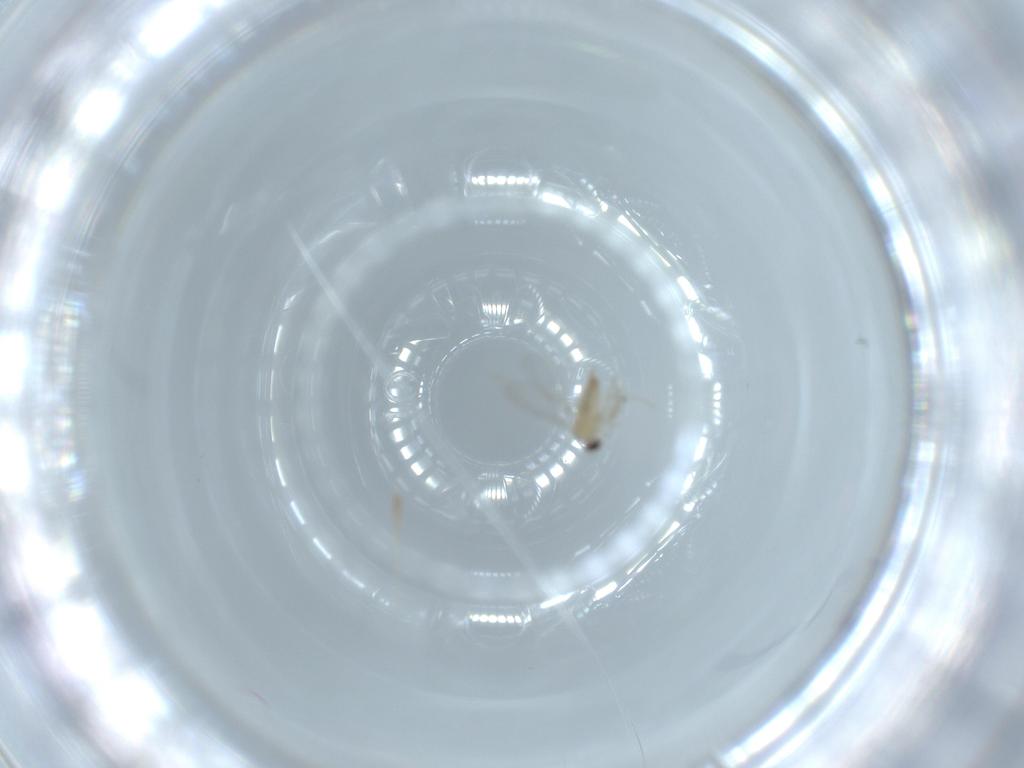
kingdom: Animalia
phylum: Arthropoda
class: Insecta
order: Diptera
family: Cecidomyiidae
